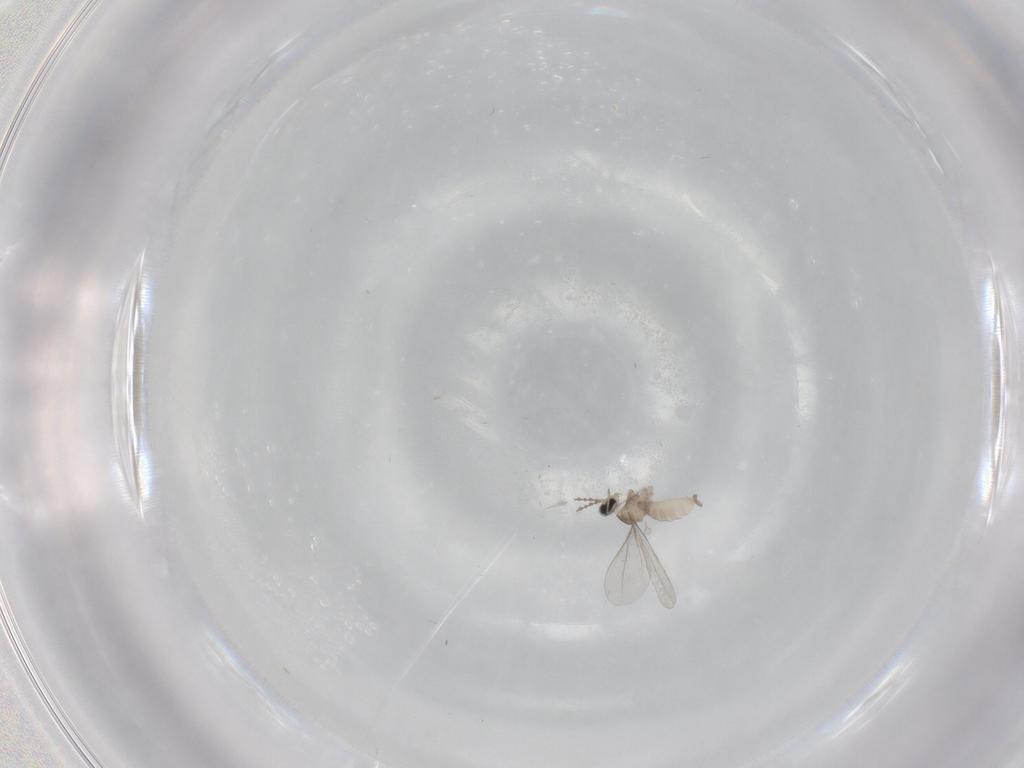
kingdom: Animalia
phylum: Arthropoda
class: Insecta
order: Diptera
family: Cecidomyiidae
